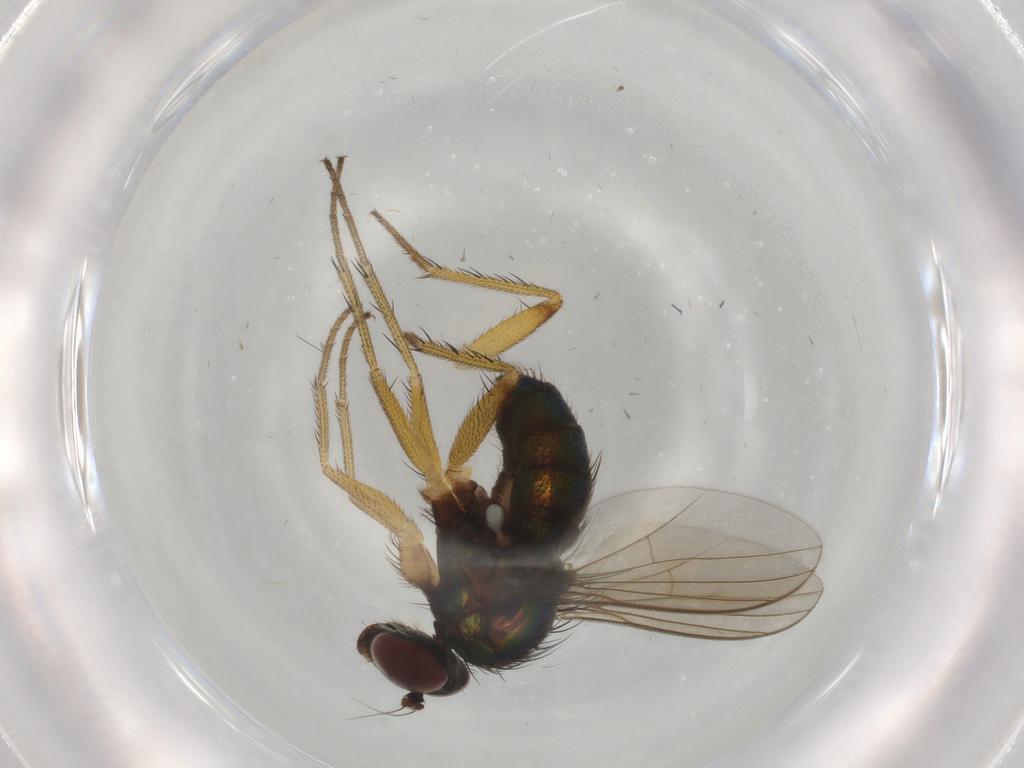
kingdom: Animalia
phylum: Arthropoda
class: Insecta
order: Diptera
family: Dolichopodidae
